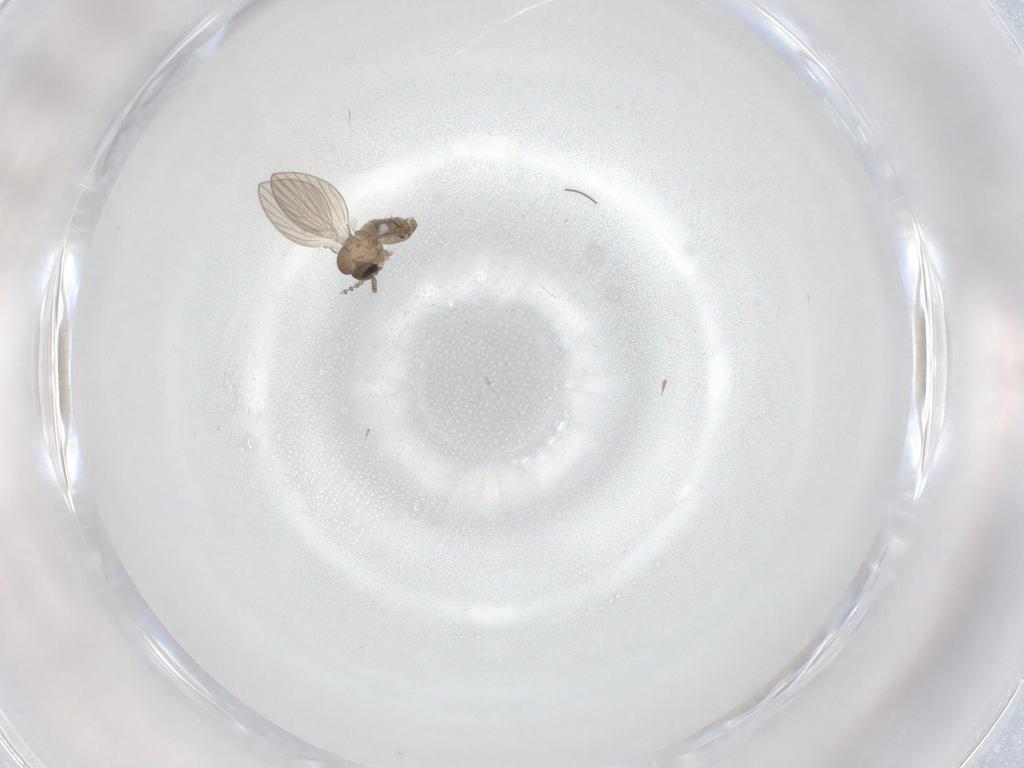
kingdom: Animalia
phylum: Arthropoda
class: Insecta
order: Diptera
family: Psychodidae
